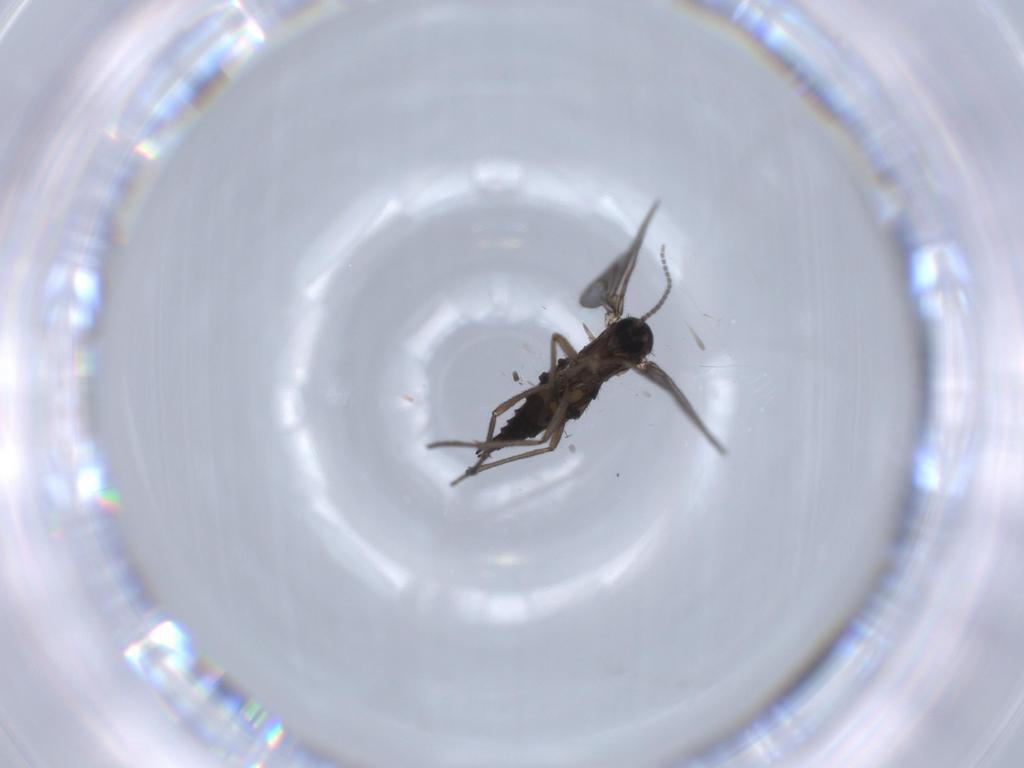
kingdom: Animalia
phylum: Arthropoda
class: Insecta
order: Diptera
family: Sciaridae
